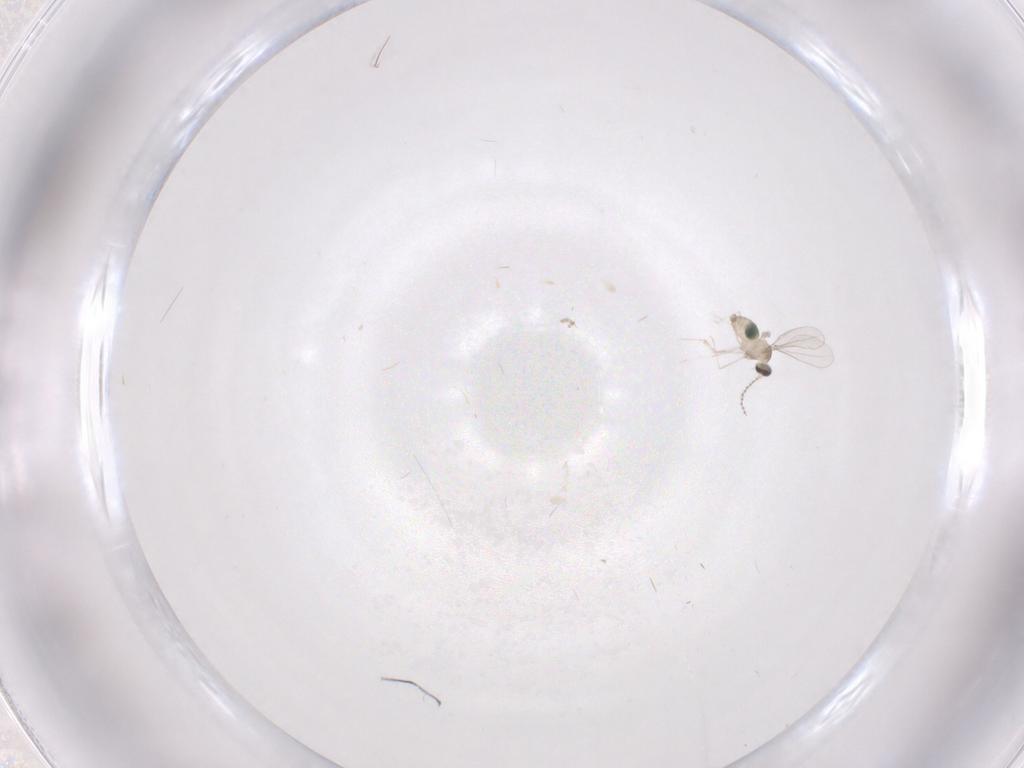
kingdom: Animalia
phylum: Arthropoda
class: Insecta
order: Diptera
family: Cecidomyiidae
